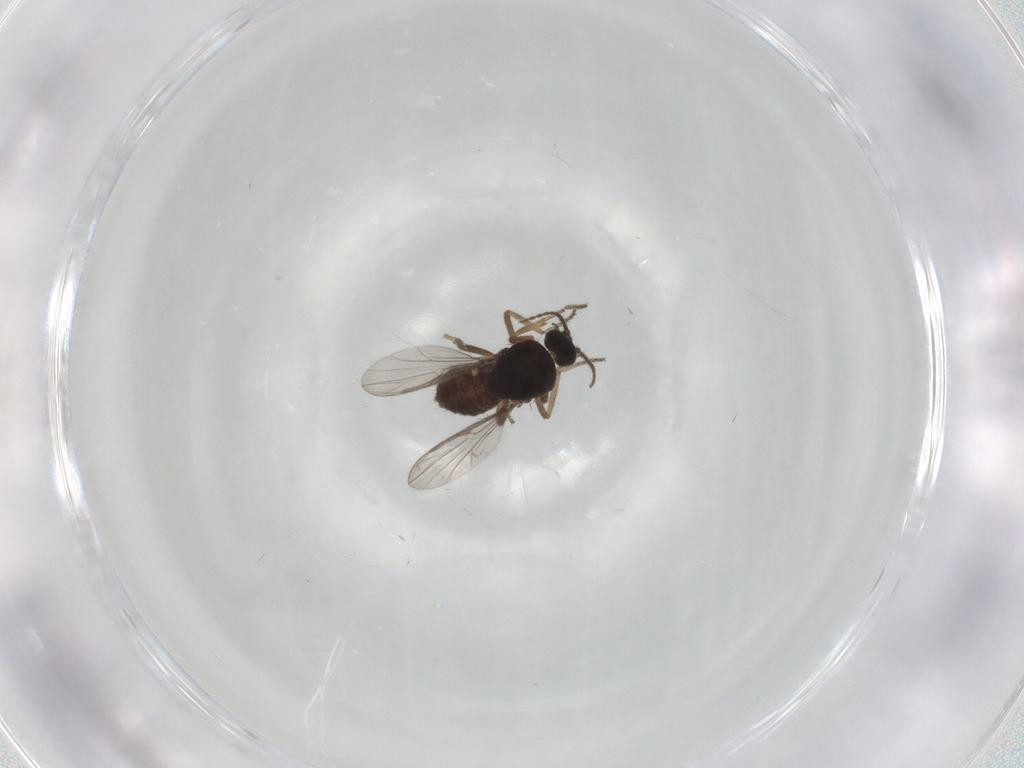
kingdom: Animalia
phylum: Arthropoda
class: Insecta
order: Diptera
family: Ceratopogonidae
